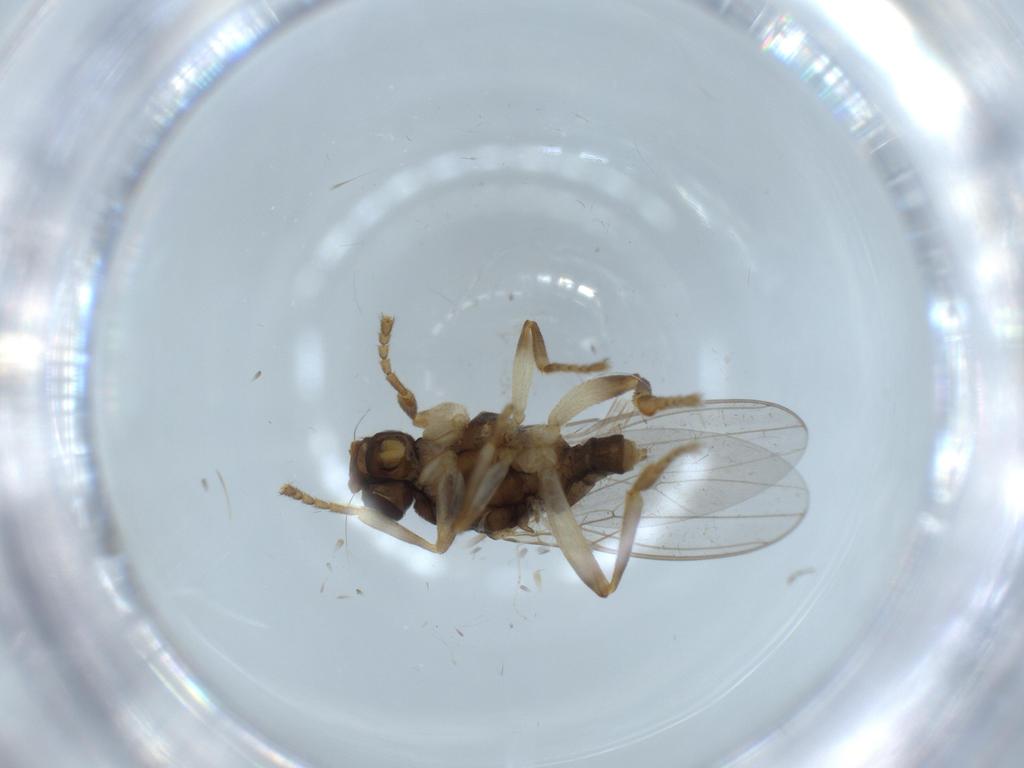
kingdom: Animalia
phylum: Arthropoda
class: Insecta
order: Diptera
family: Sphaeroceridae
